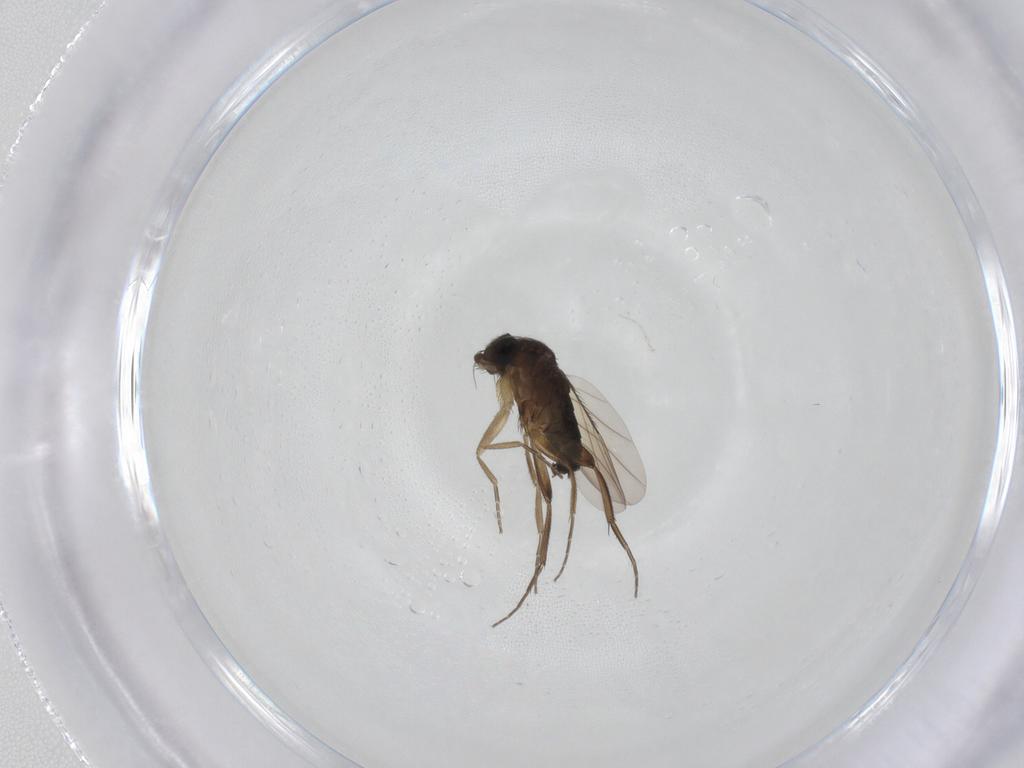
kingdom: Animalia
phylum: Arthropoda
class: Insecta
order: Diptera
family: Phoridae
